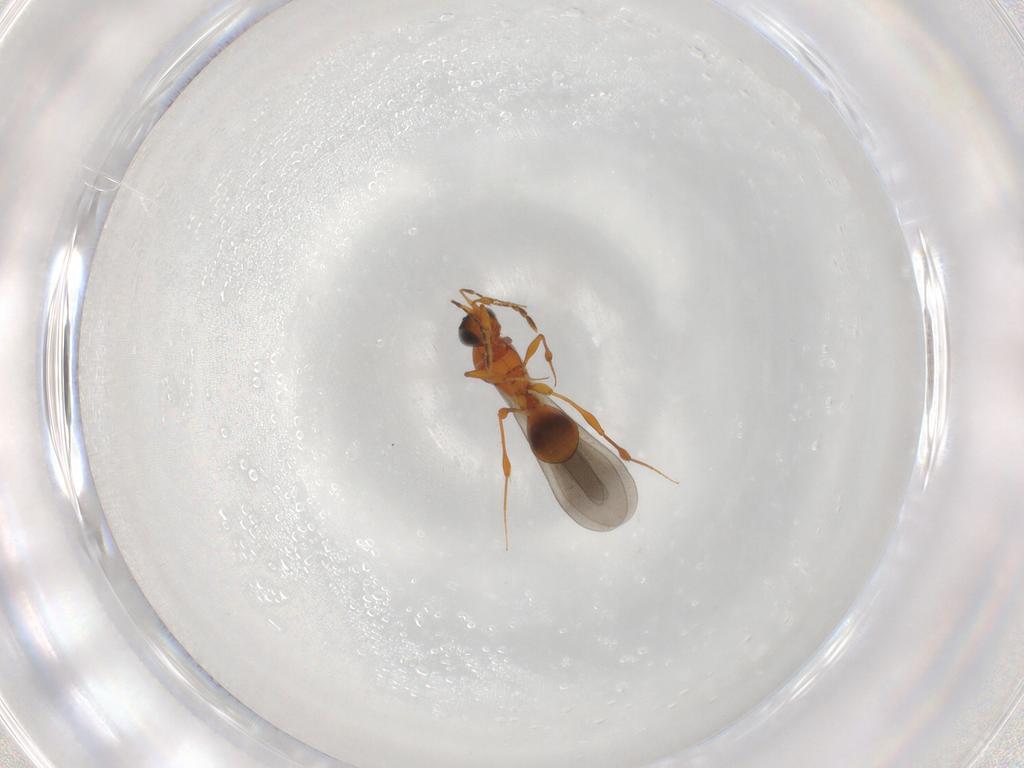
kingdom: Animalia
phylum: Arthropoda
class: Insecta
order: Hymenoptera
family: Platygastridae
